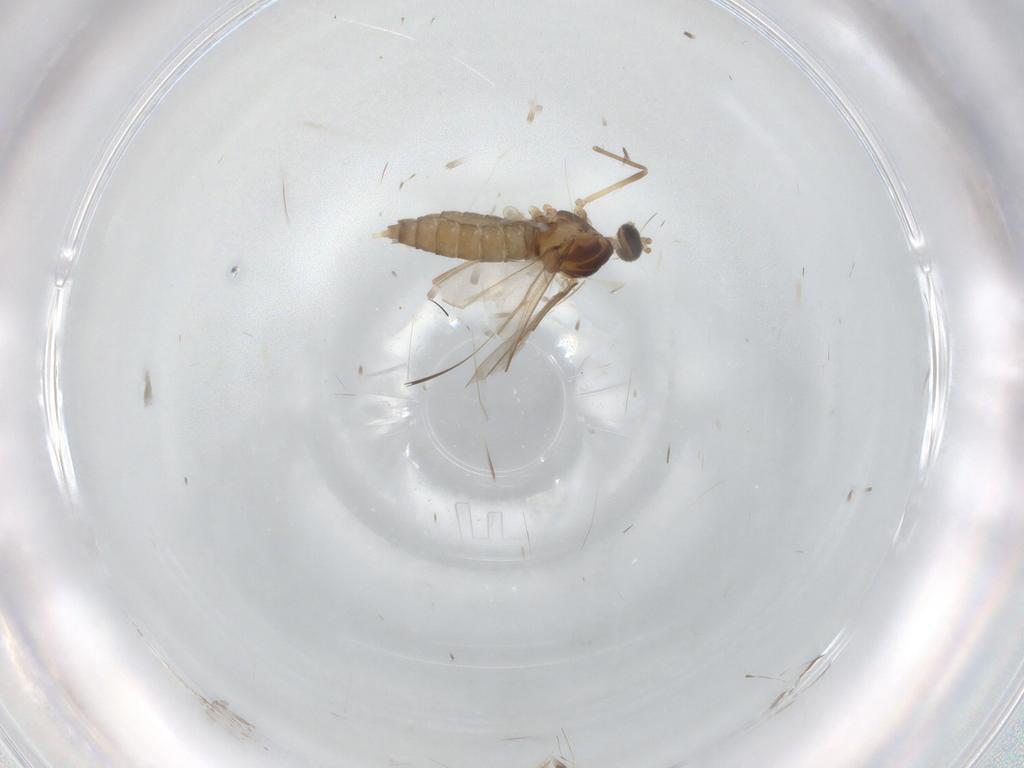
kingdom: Animalia
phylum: Arthropoda
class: Insecta
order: Diptera
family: Cecidomyiidae
